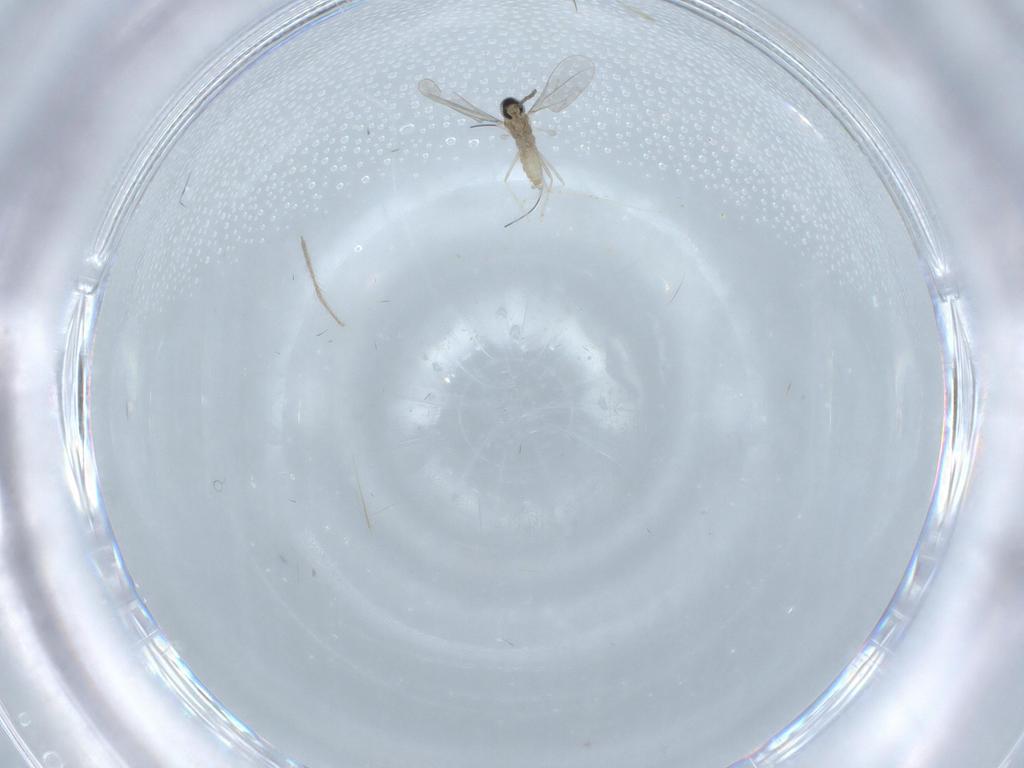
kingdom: Animalia
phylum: Arthropoda
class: Insecta
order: Diptera
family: Cecidomyiidae
